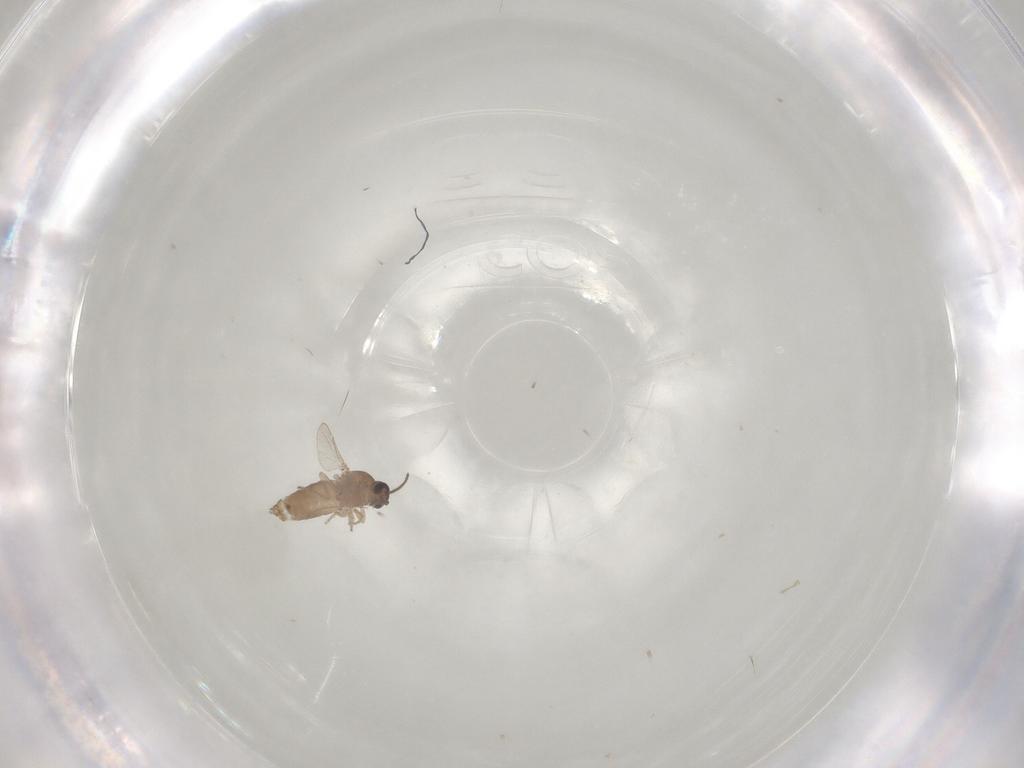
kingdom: Animalia
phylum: Arthropoda
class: Insecta
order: Diptera
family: Ceratopogonidae
